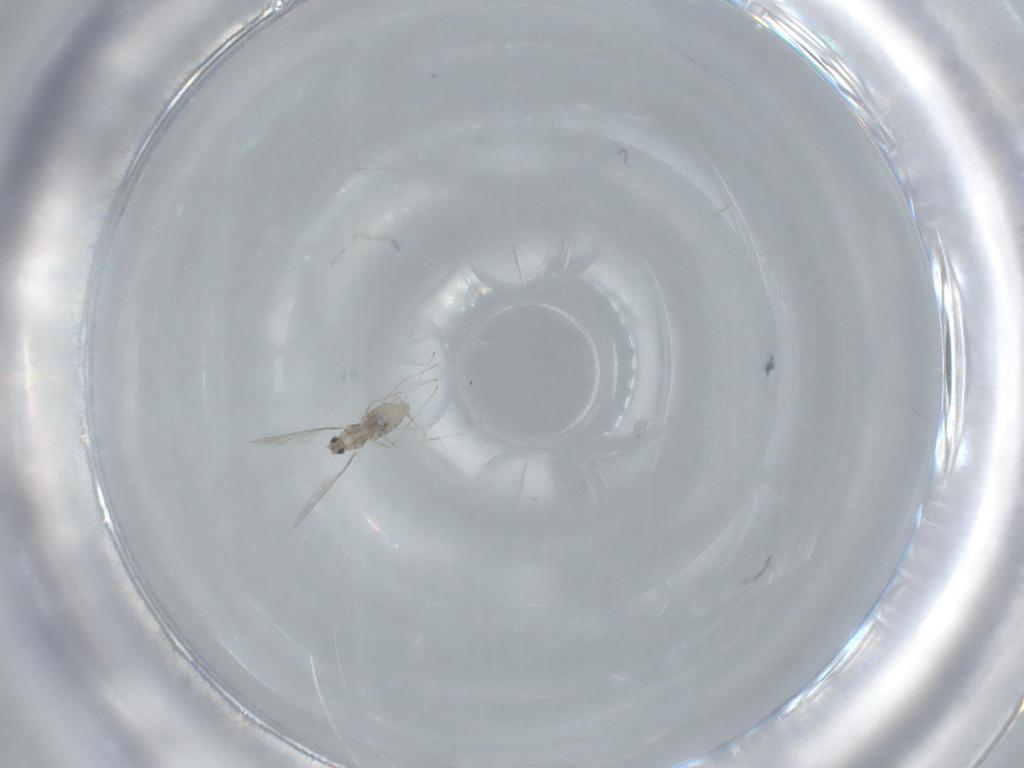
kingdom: Animalia
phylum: Arthropoda
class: Insecta
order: Diptera
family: Cecidomyiidae
